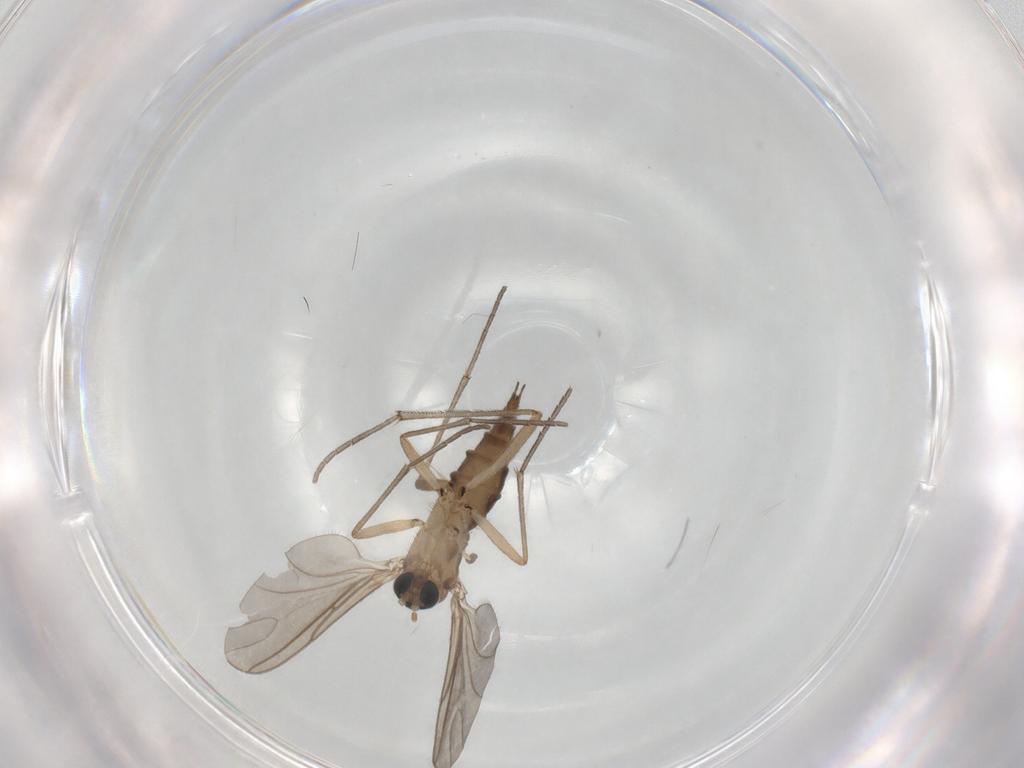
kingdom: Animalia
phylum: Arthropoda
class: Insecta
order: Diptera
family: Sciaridae
